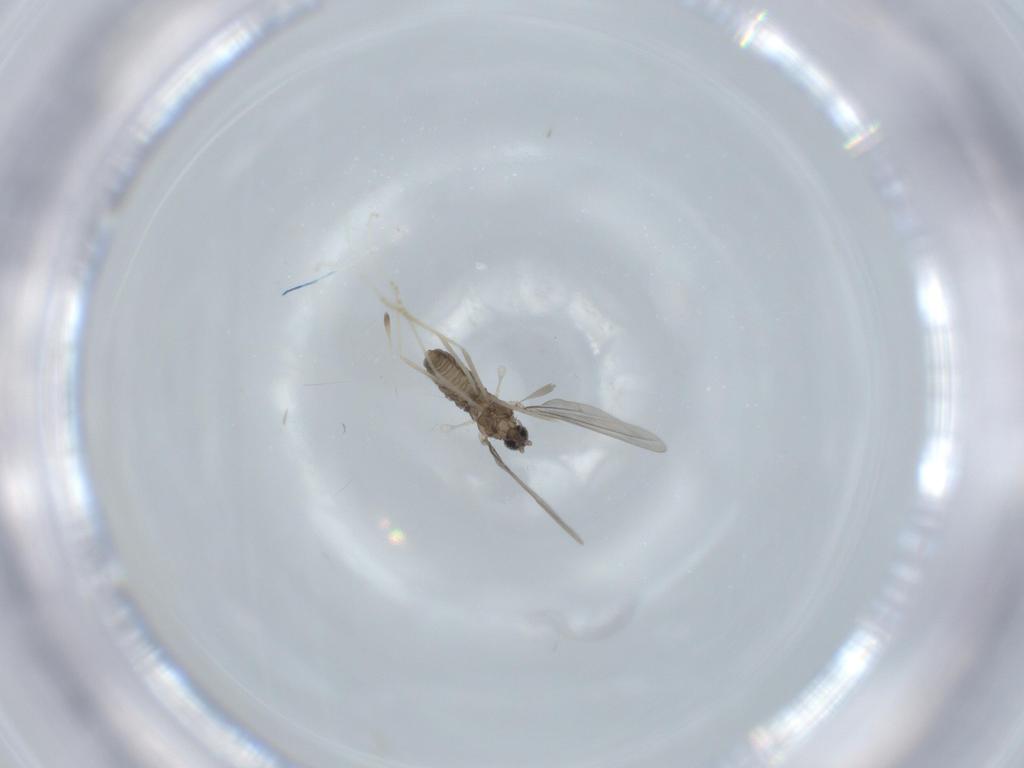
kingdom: Animalia
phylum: Arthropoda
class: Insecta
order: Diptera
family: Cecidomyiidae
